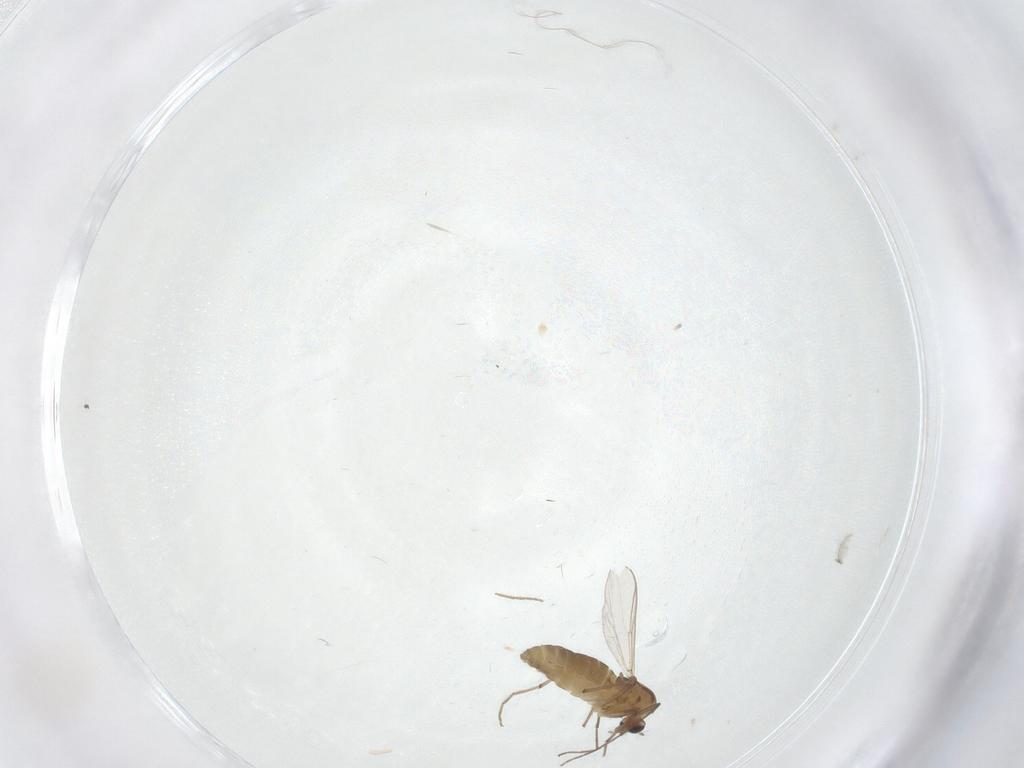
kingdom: Animalia
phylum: Arthropoda
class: Insecta
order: Diptera
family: Chironomidae
